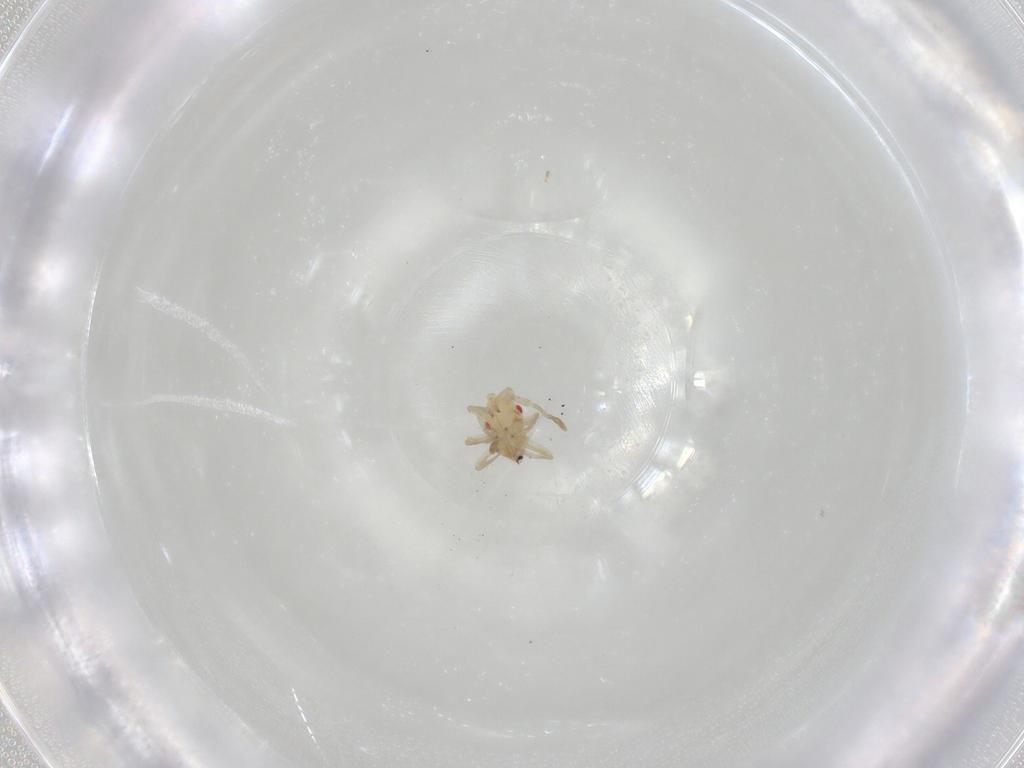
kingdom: Animalia
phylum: Arthropoda
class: Insecta
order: Hemiptera
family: Miridae
